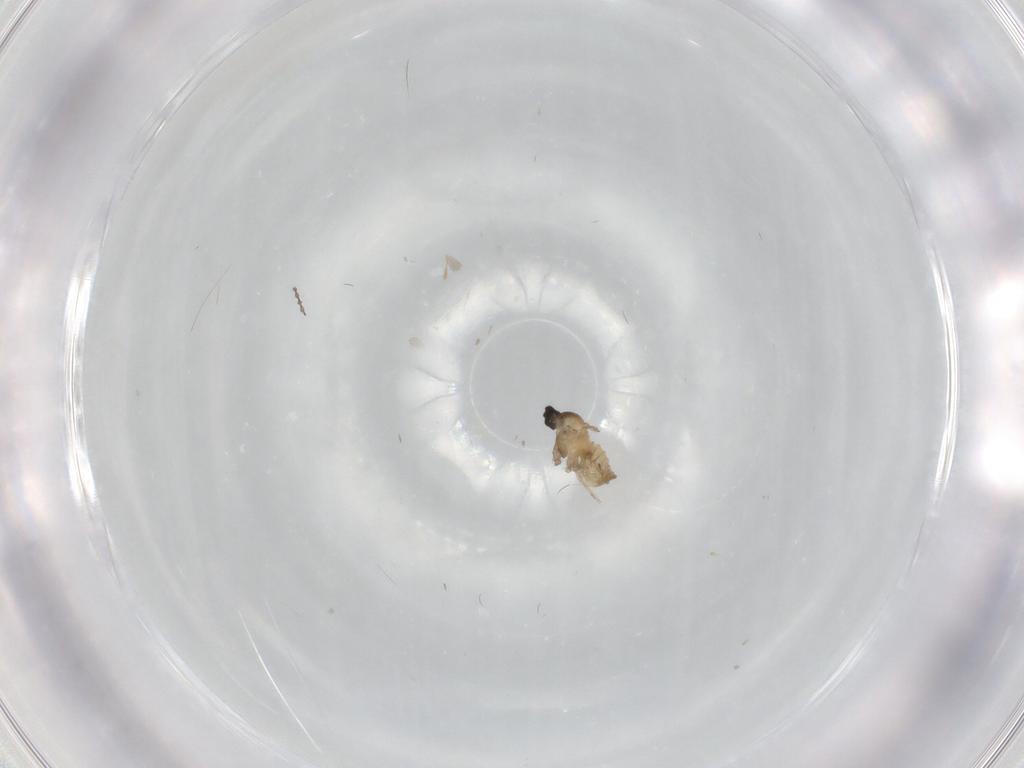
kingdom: Animalia
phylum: Arthropoda
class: Insecta
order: Diptera
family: Cecidomyiidae
